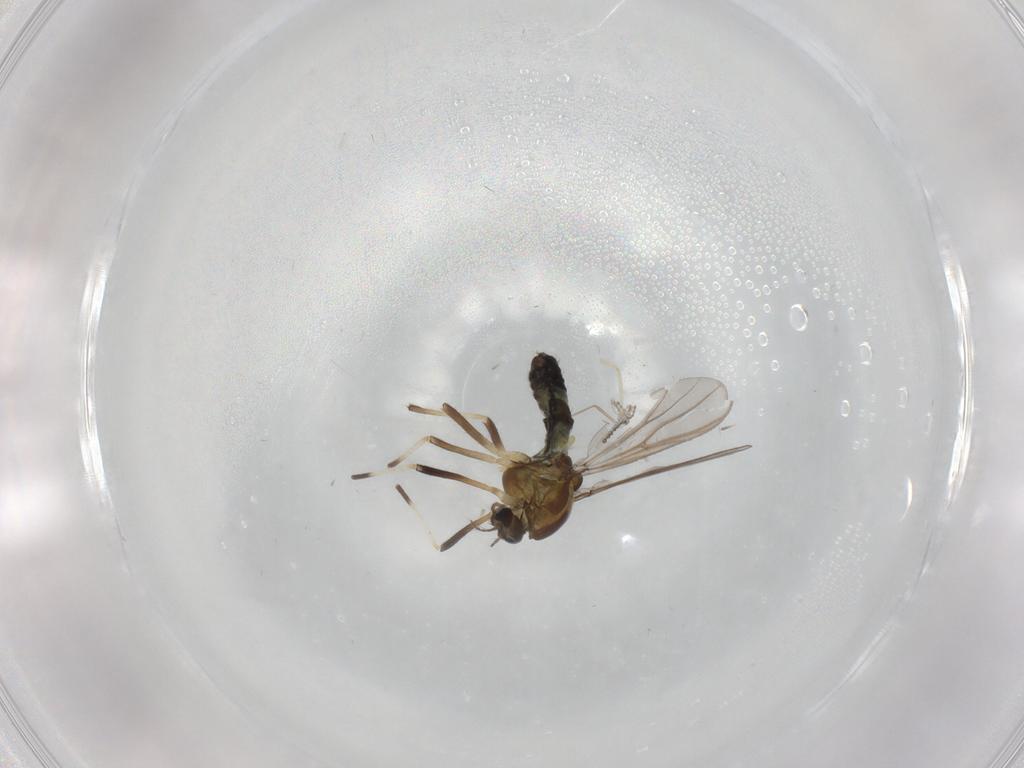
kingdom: Animalia
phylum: Arthropoda
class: Insecta
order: Diptera
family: Chironomidae
